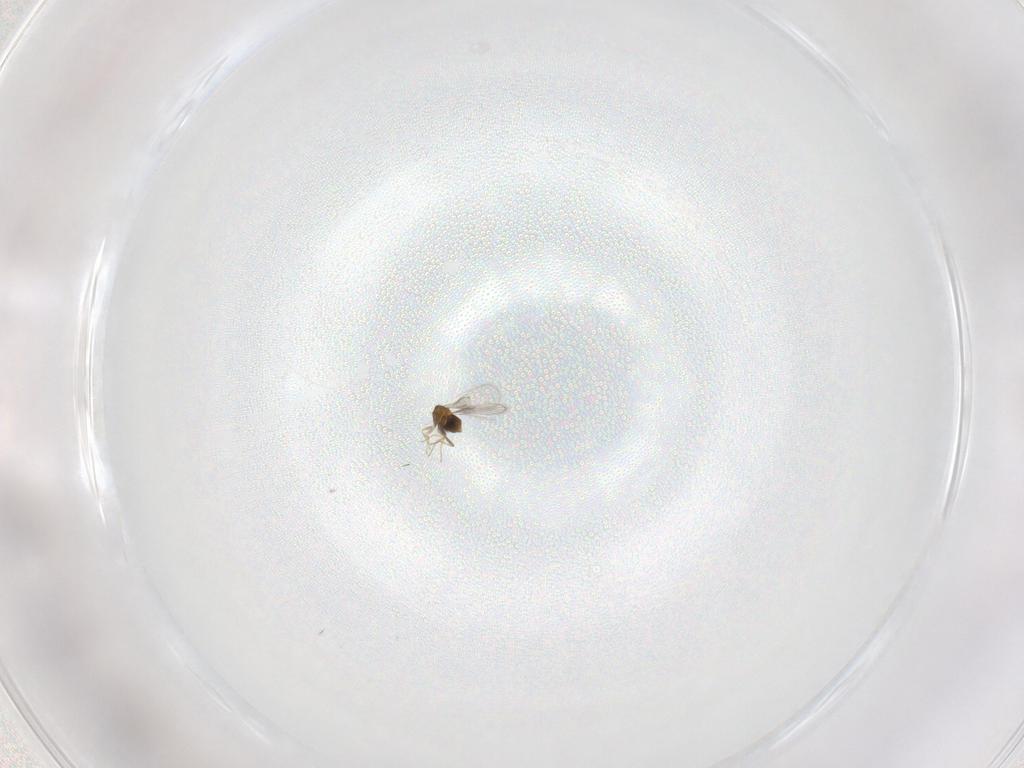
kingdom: Animalia
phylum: Arthropoda
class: Insecta
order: Hymenoptera
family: Trichogrammatidae
